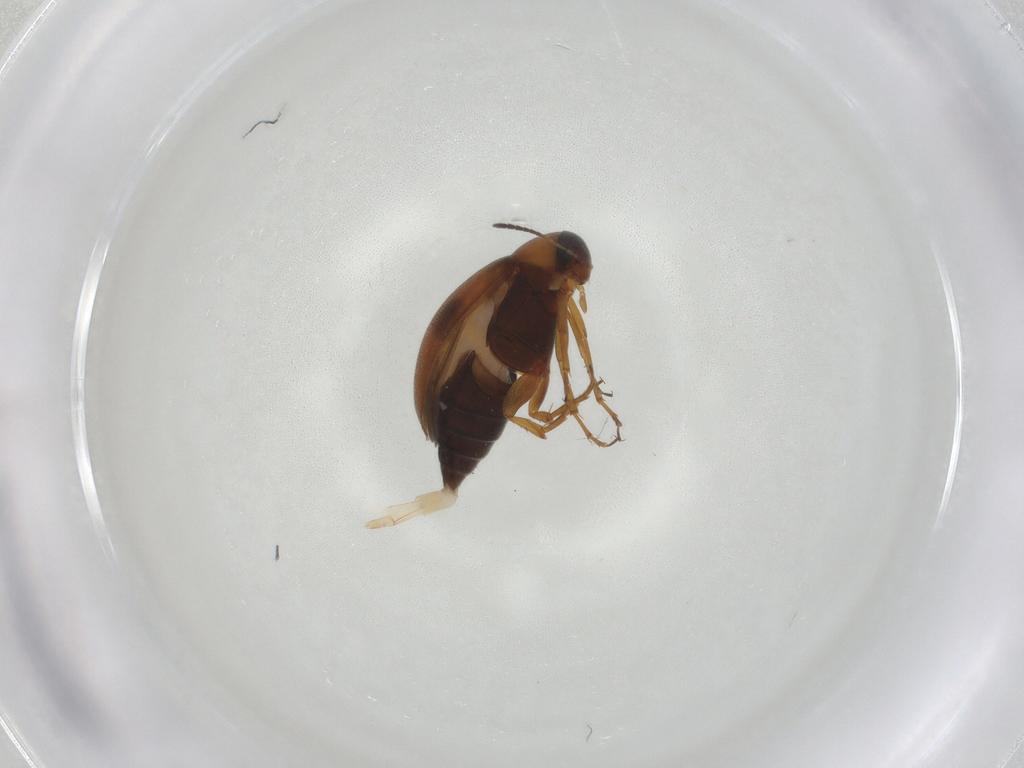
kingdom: Animalia
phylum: Arthropoda
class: Insecta
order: Coleoptera
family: Scraptiidae
